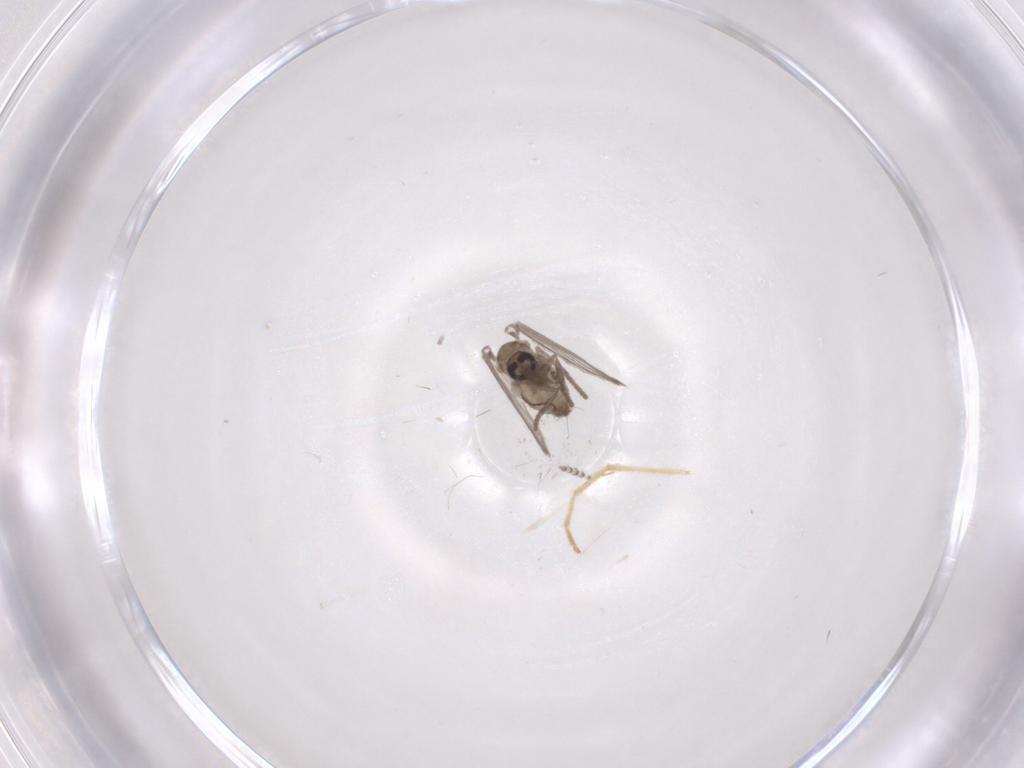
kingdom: Animalia
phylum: Arthropoda
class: Insecta
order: Diptera
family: Psychodidae
